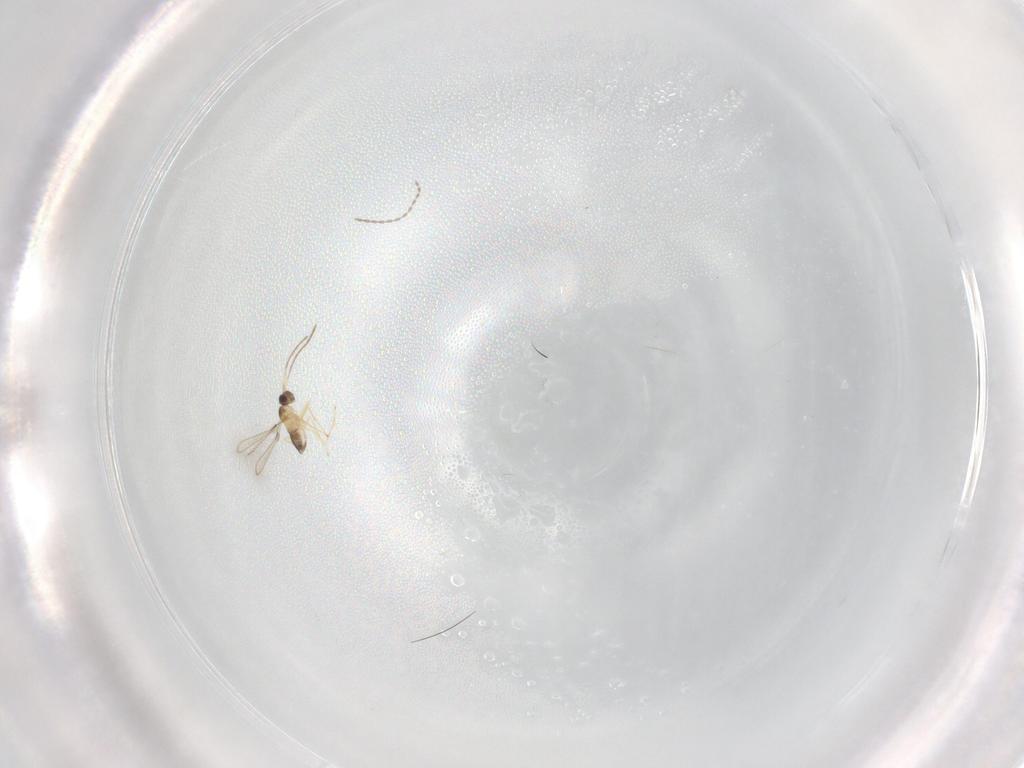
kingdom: Animalia
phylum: Arthropoda
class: Insecta
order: Hymenoptera
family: Mymaridae
